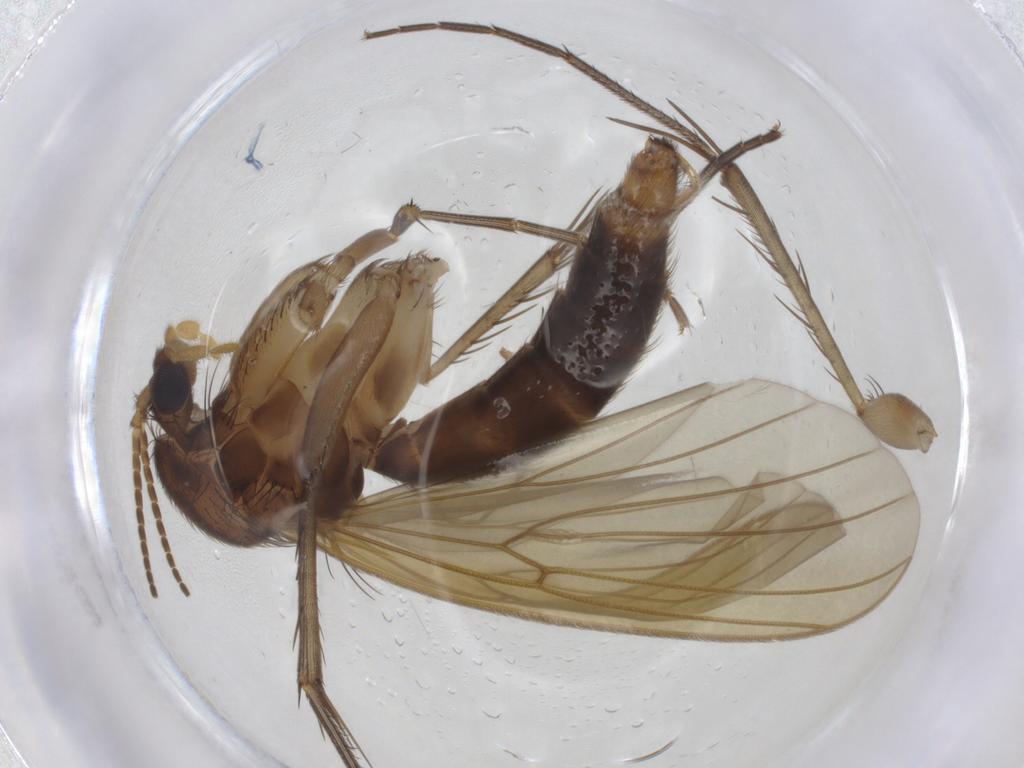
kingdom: Animalia
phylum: Arthropoda
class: Insecta
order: Diptera
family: Mycetophilidae
